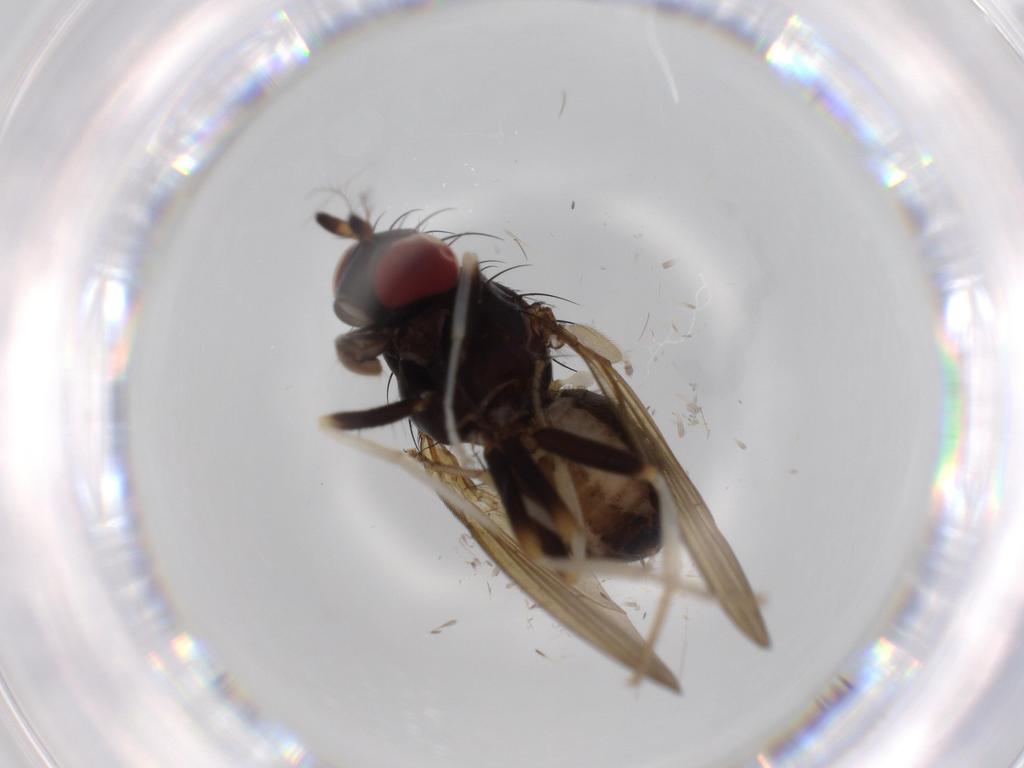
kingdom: Animalia
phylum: Arthropoda
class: Insecta
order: Diptera
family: Lauxaniidae
